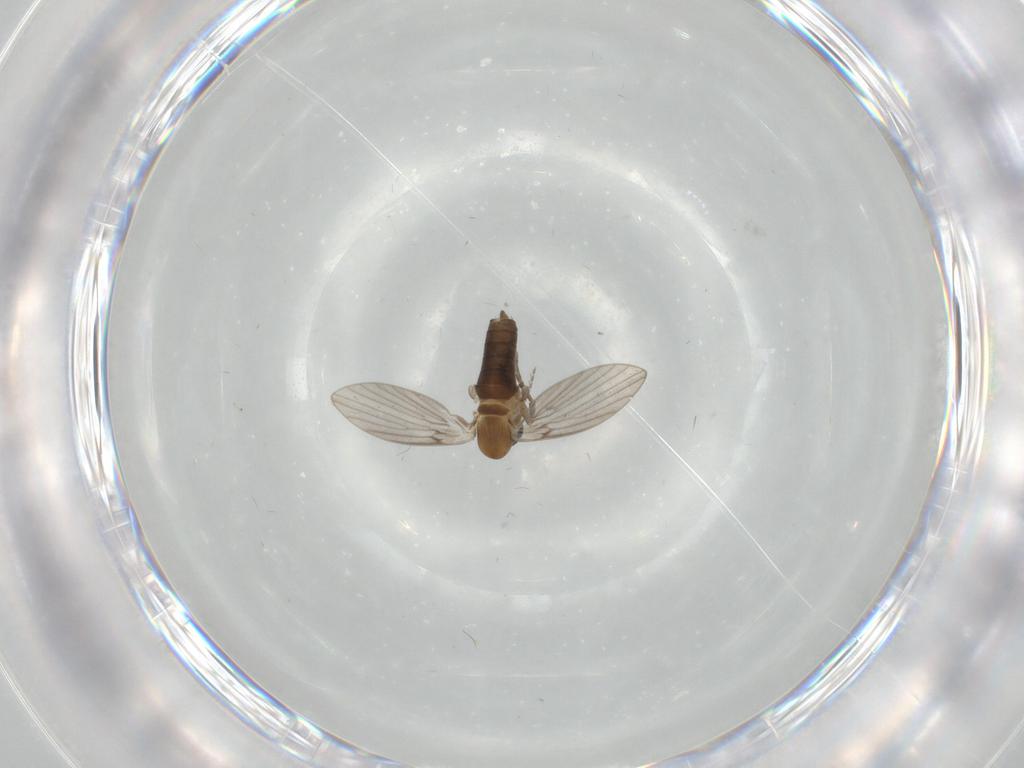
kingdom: Animalia
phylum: Arthropoda
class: Insecta
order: Diptera
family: Psychodidae
